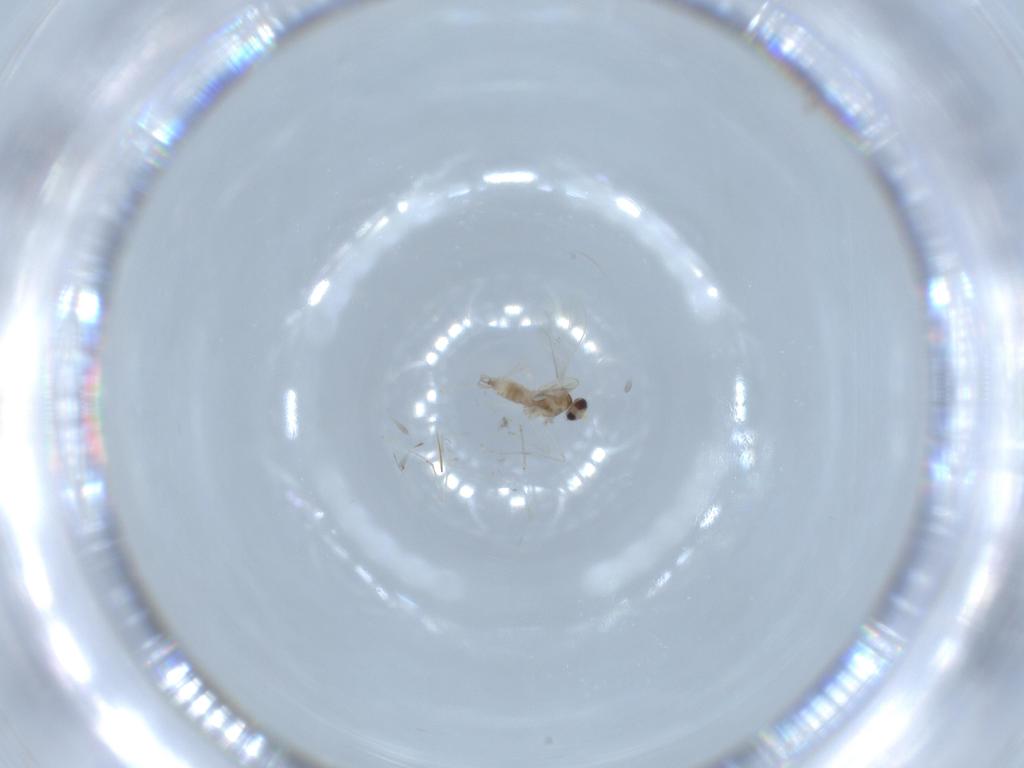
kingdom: Animalia
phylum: Arthropoda
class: Insecta
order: Diptera
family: Cecidomyiidae
